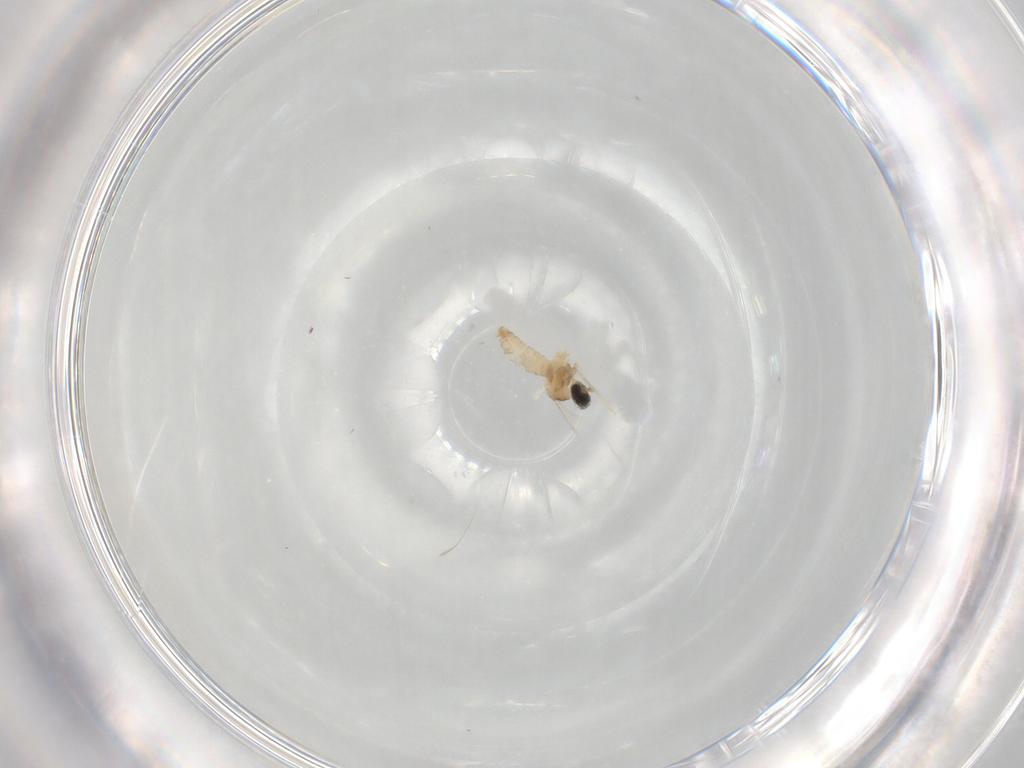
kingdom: Animalia
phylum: Arthropoda
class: Insecta
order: Diptera
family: Cecidomyiidae
